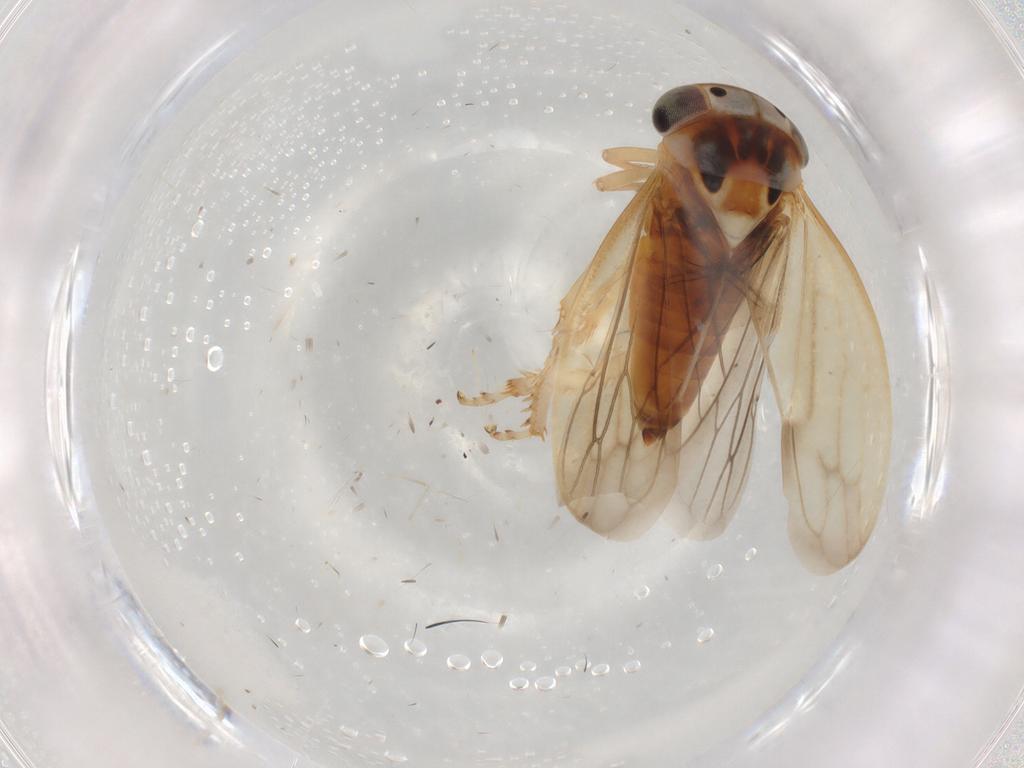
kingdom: Animalia
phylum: Arthropoda
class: Insecta
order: Hemiptera
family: Cicadellidae
